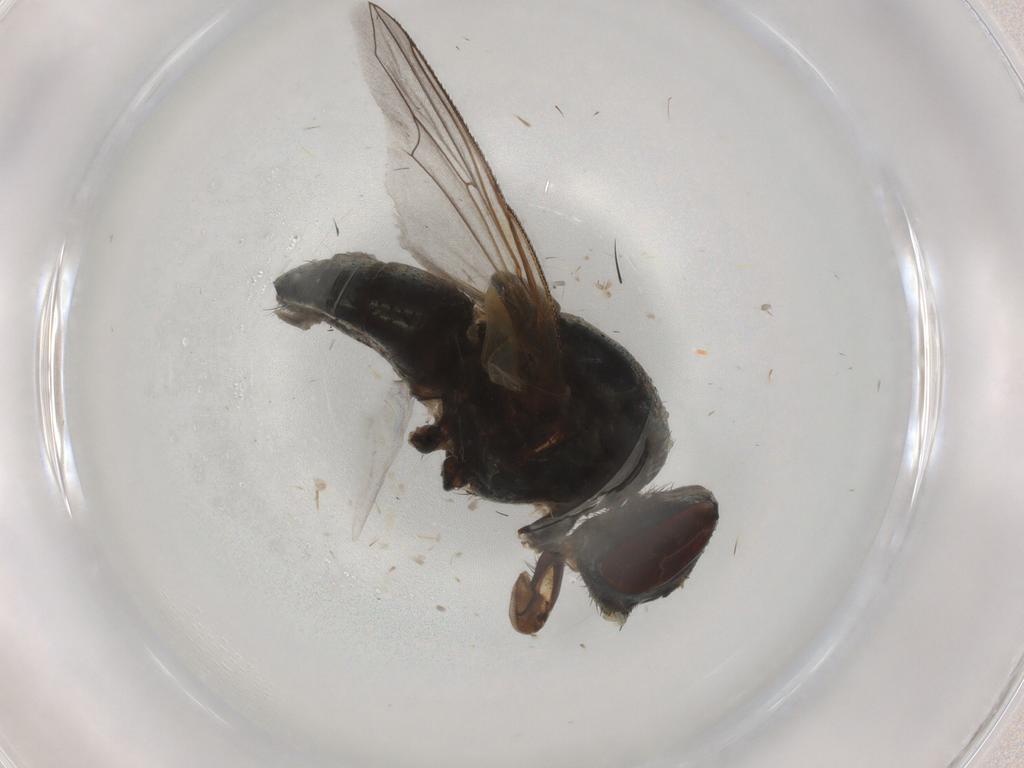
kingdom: Animalia
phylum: Arthropoda
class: Insecta
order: Diptera
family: Muscidae
